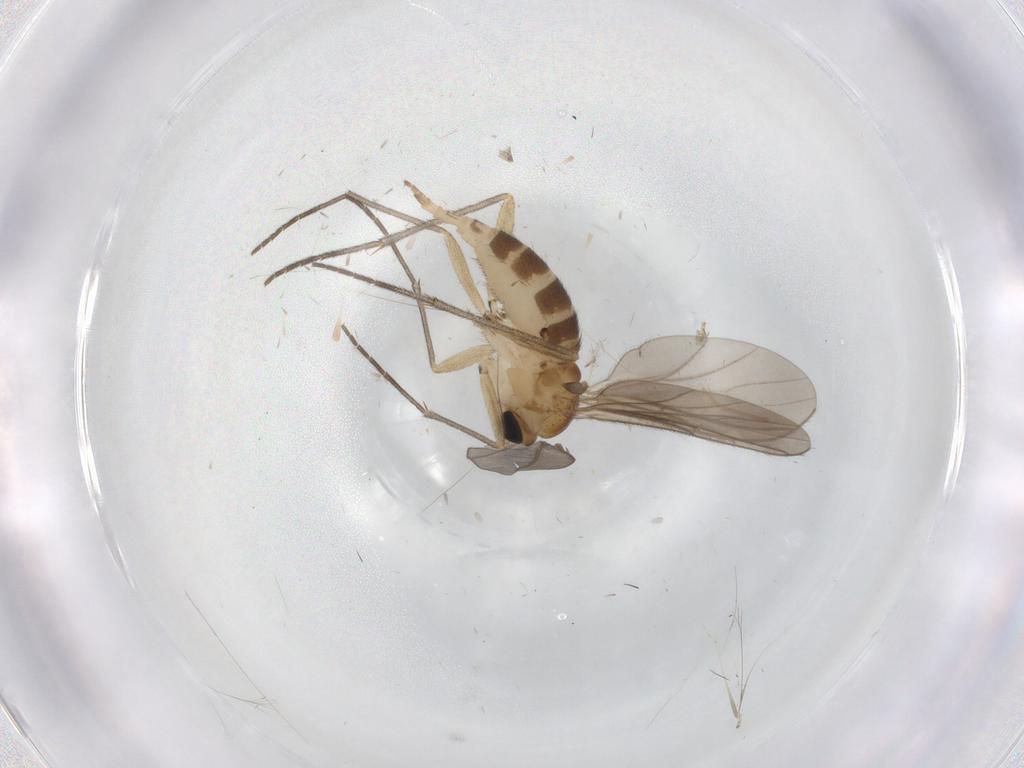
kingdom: Animalia
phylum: Arthropoda
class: Insecta
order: Diptera
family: Sciaridae
